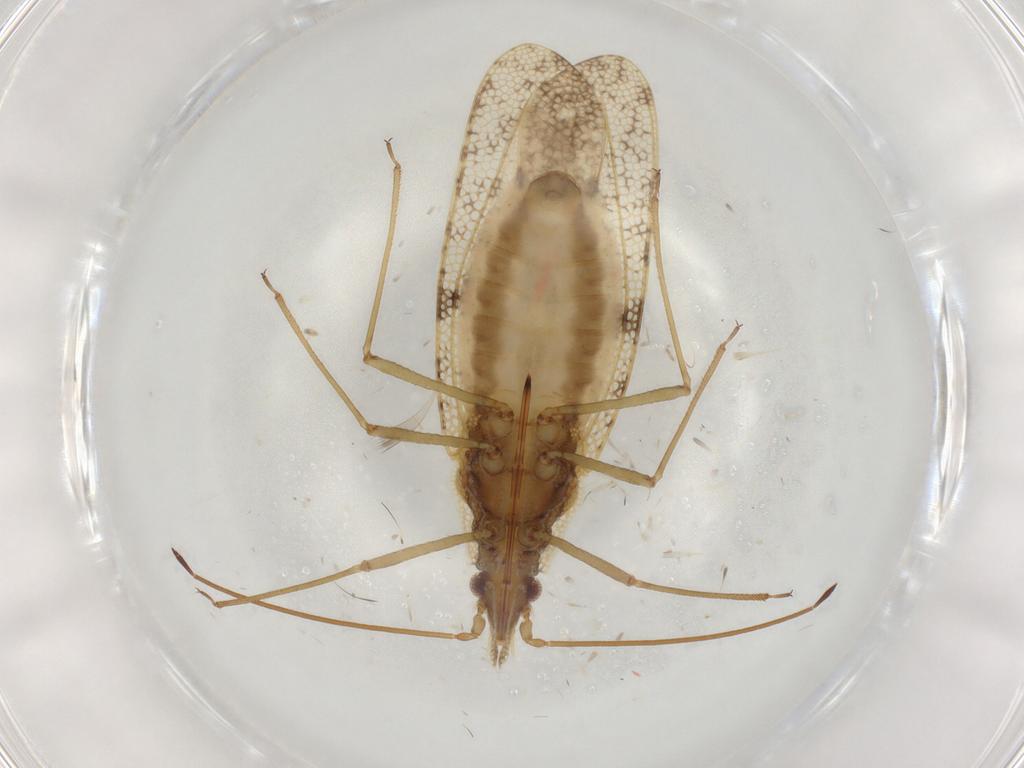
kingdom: Animalia
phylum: Arthropoda
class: Insecta
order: Hemiptera
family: Tingidae
